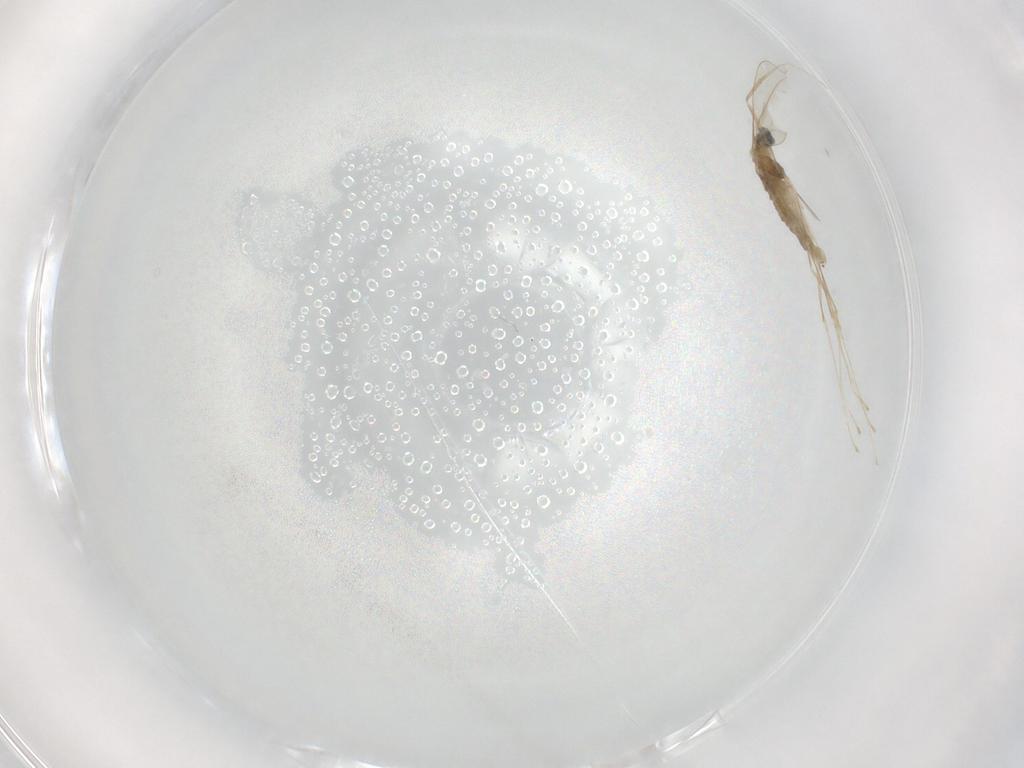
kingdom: Animalia
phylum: Arthropoda
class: Insecta
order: Diptera
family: Cecidomyiidae
